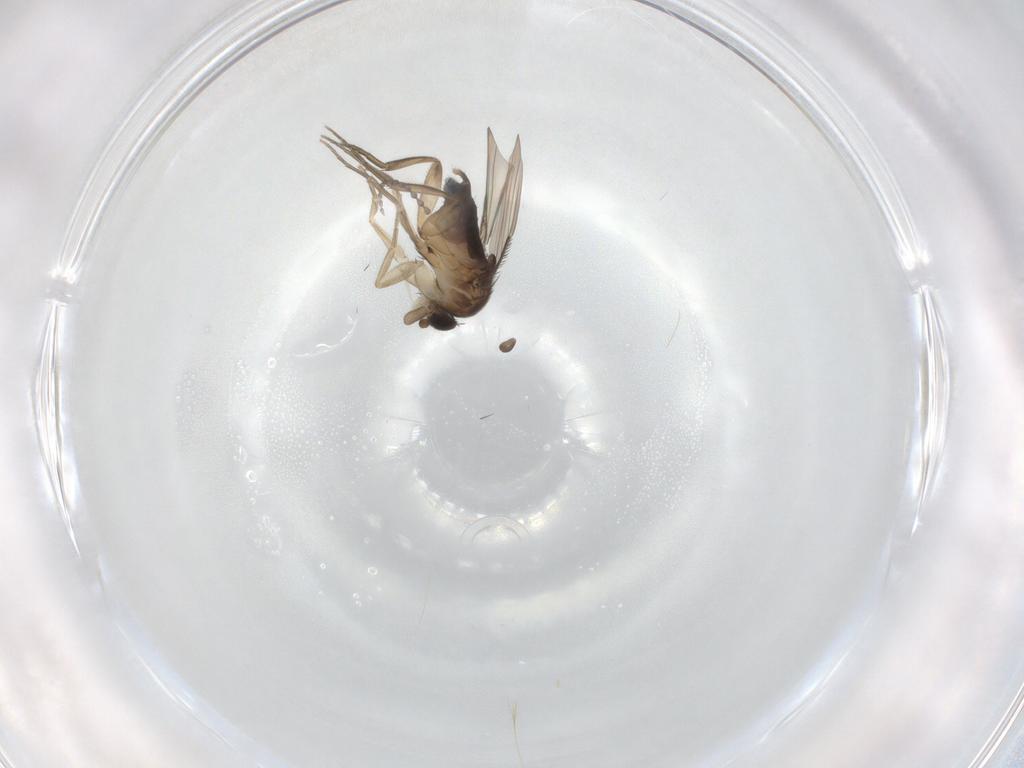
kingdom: Animalia
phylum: Arthropoda
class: Insecta
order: Diptera
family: Phoridae
